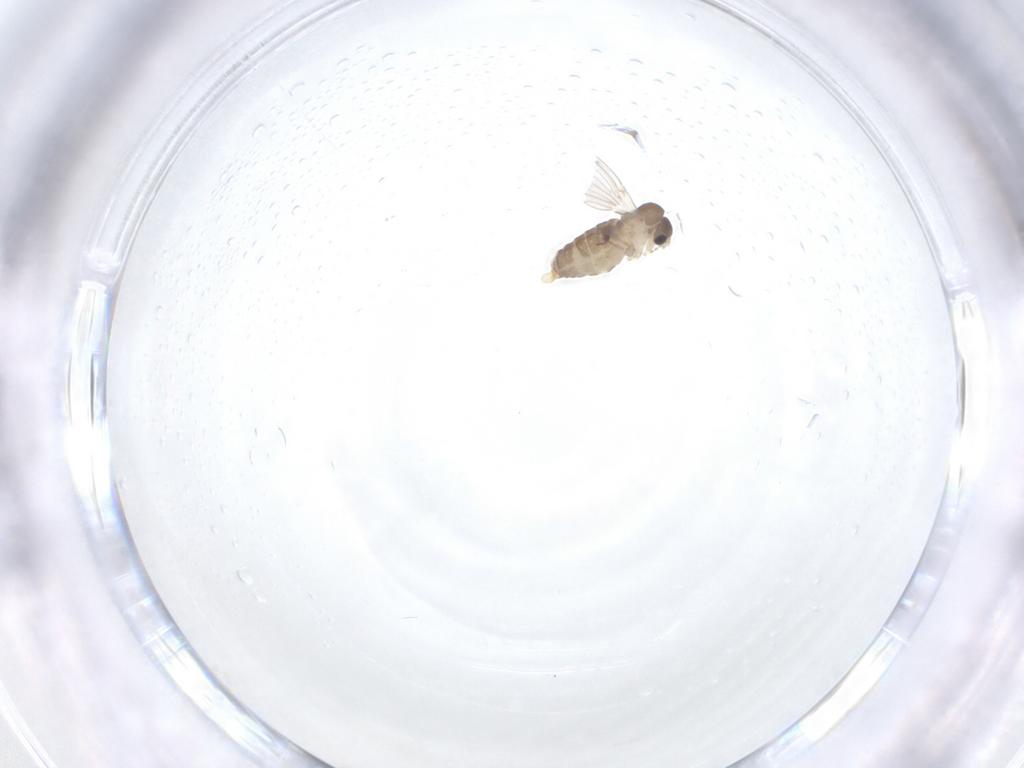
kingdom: Animalia
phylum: Arthropoda
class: Insecta
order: Diptera
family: Psychodidae
